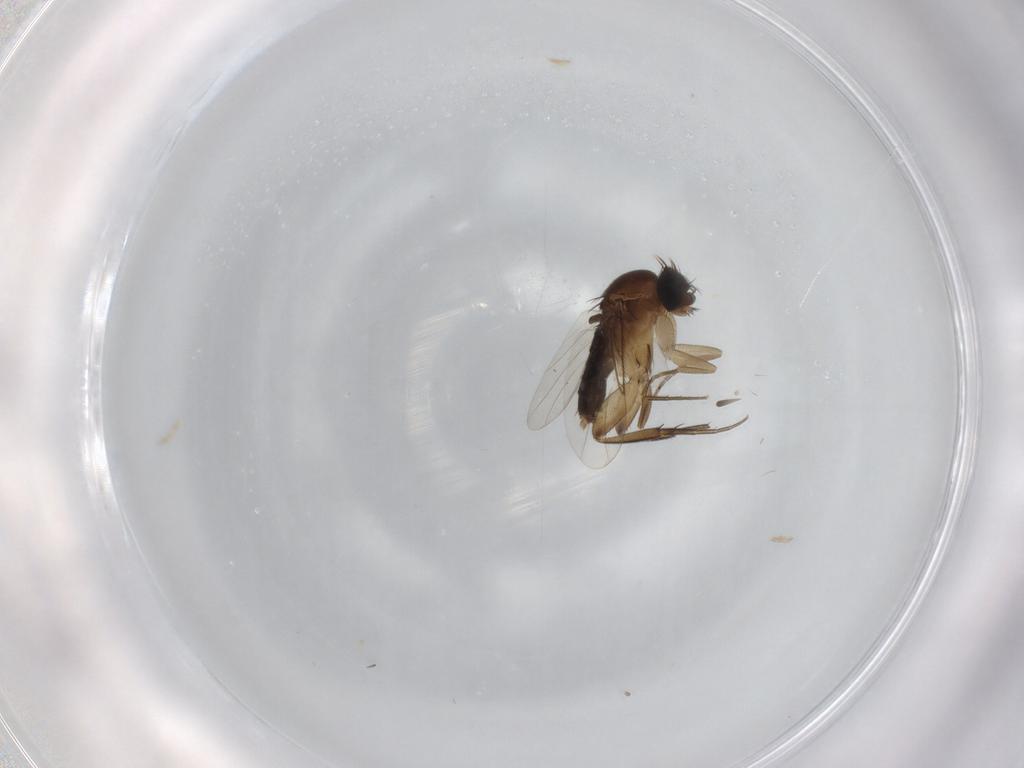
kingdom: Animalia
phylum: Arthropoda
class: Insecta
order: Diptera
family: Phoridae
